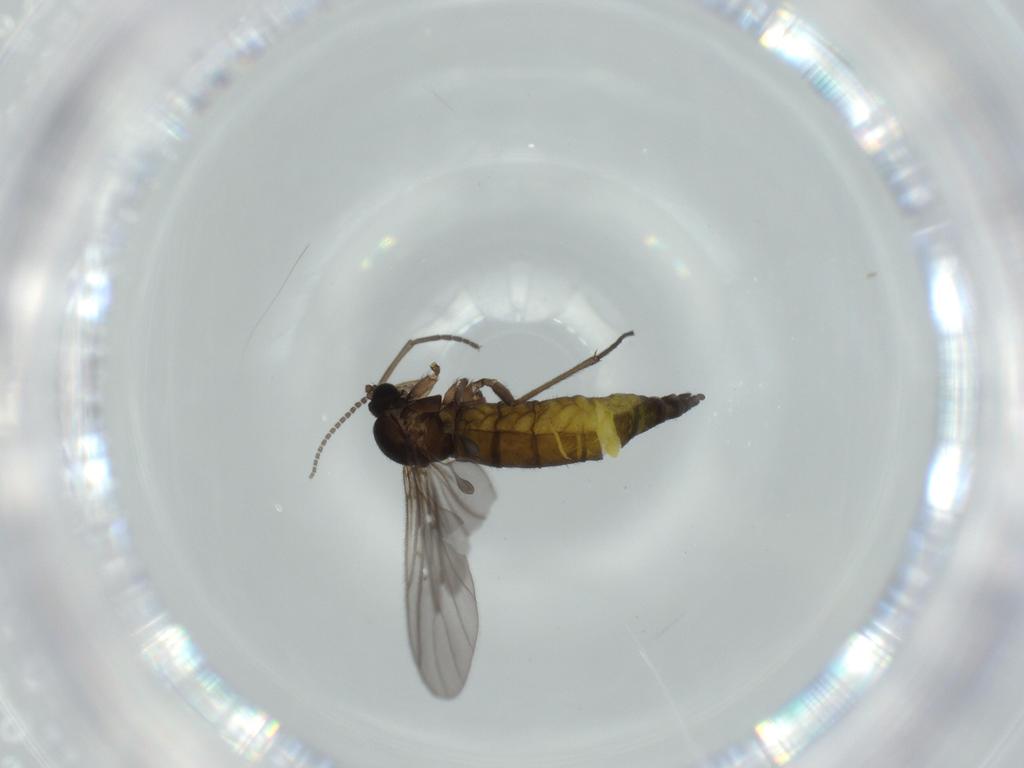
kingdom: Animalia
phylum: Arthropoda
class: Insecta
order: Diptera
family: Sciaridae
